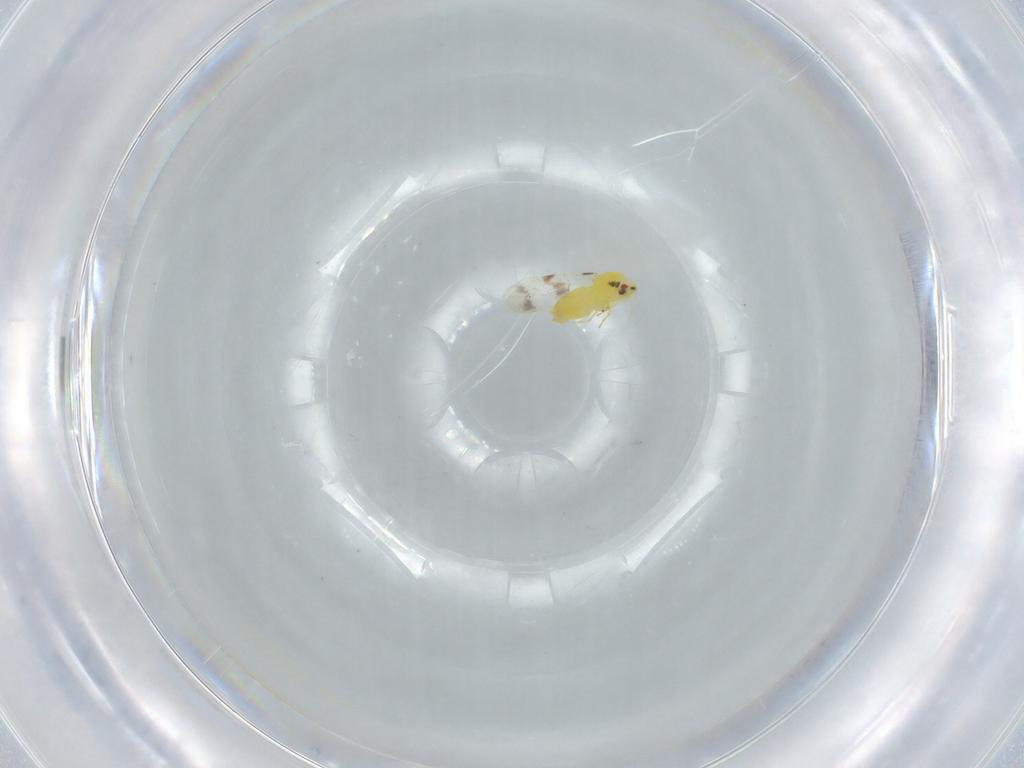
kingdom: Animalia
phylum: Arthropoda
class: Insecta
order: Hemiptera
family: Aleyrodidae
